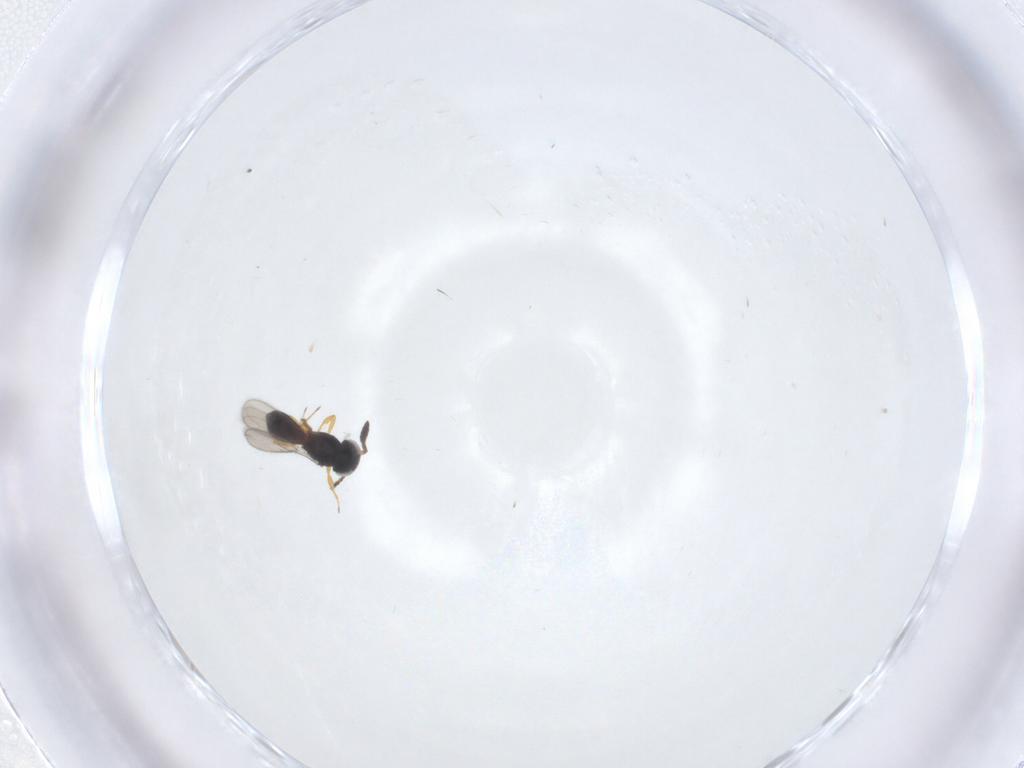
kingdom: Animalia
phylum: Arthropoda
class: Insecta
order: Hymenoptera
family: Scelionidae
